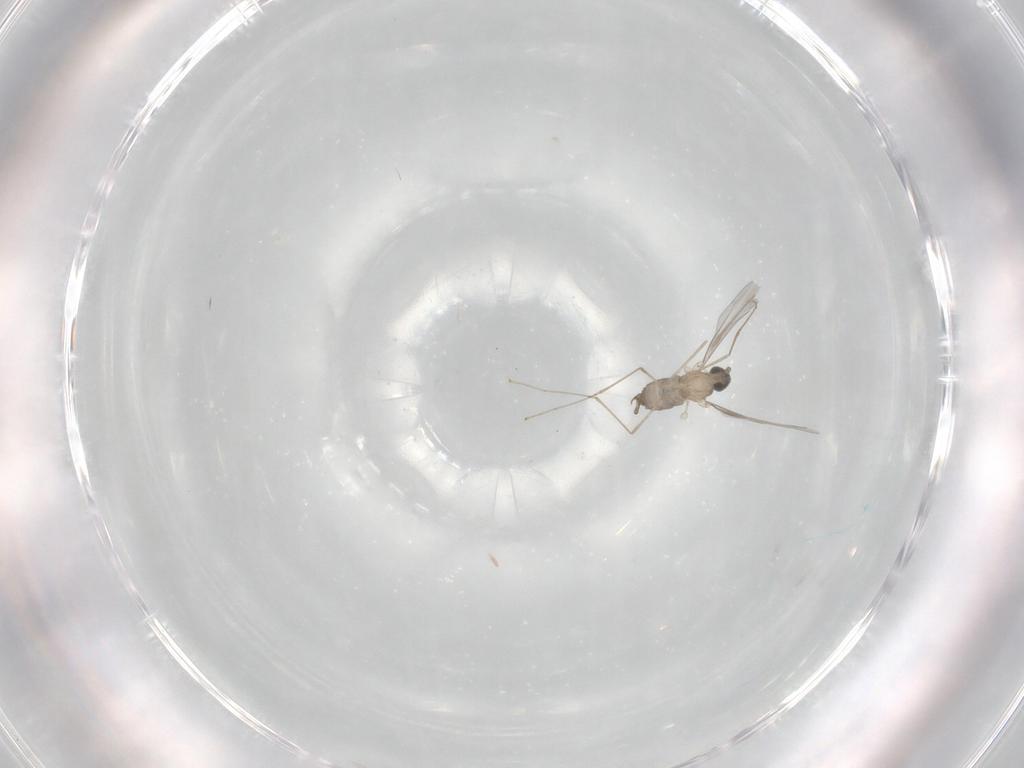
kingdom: Animalia
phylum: Arthropoda
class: Insecta
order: Diptera
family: Cecidomyiidae
